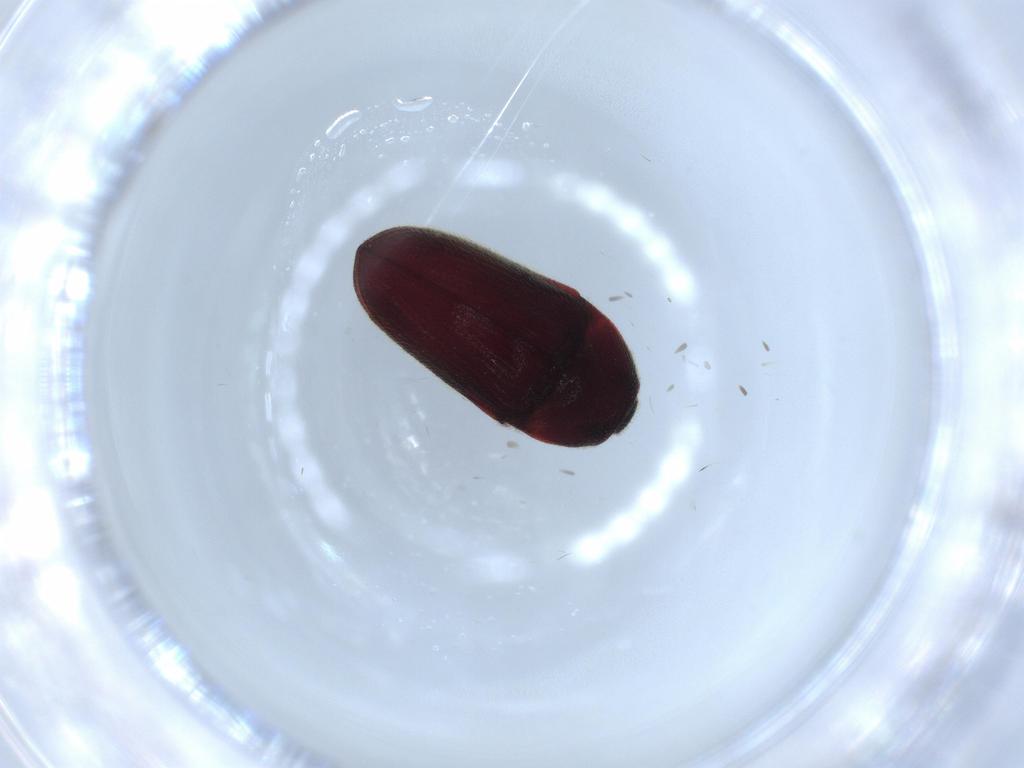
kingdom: Animalia
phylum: Arthropoda
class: Insecta
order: Coleoptera
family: Throscidae
